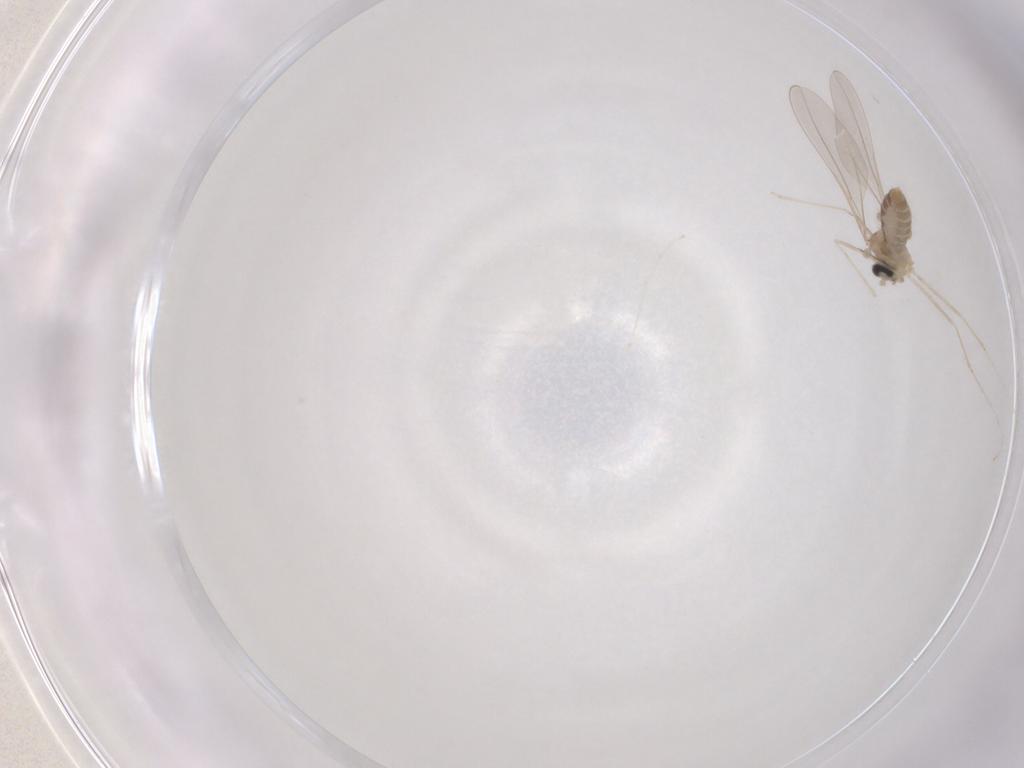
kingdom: Animalia
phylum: Arthropoda
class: Insecta
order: Diptera
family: Cecidomyiidae
